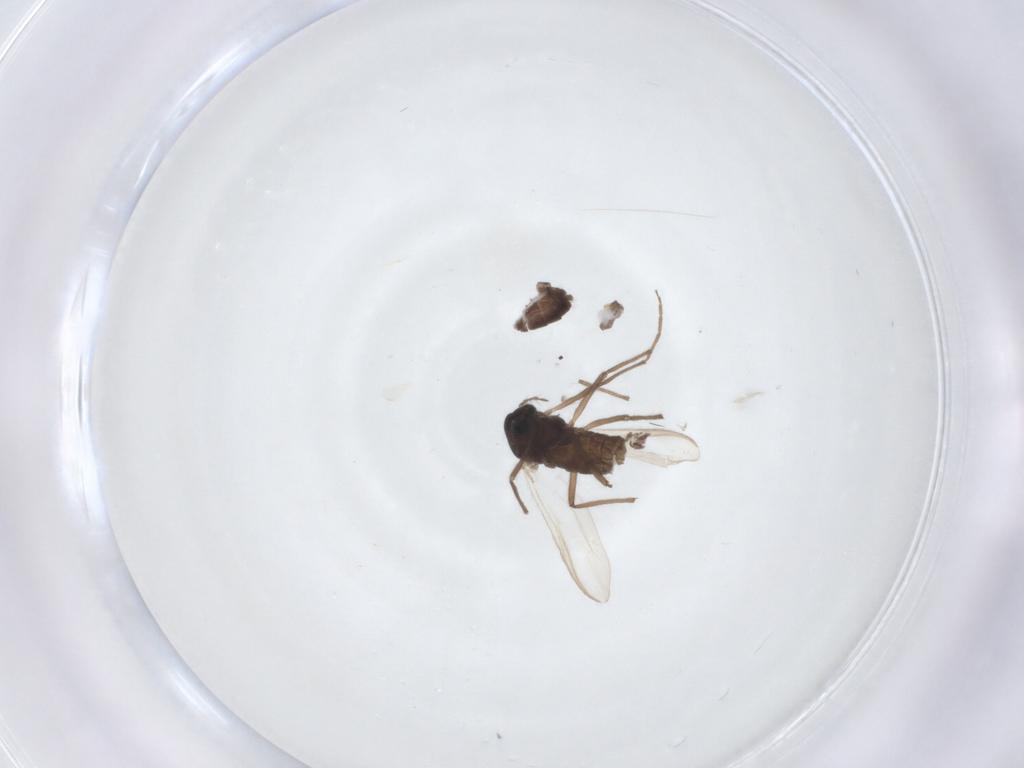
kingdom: Animalia
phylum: Arthropoda
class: Insecta
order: Diptera
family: Chironomidae
